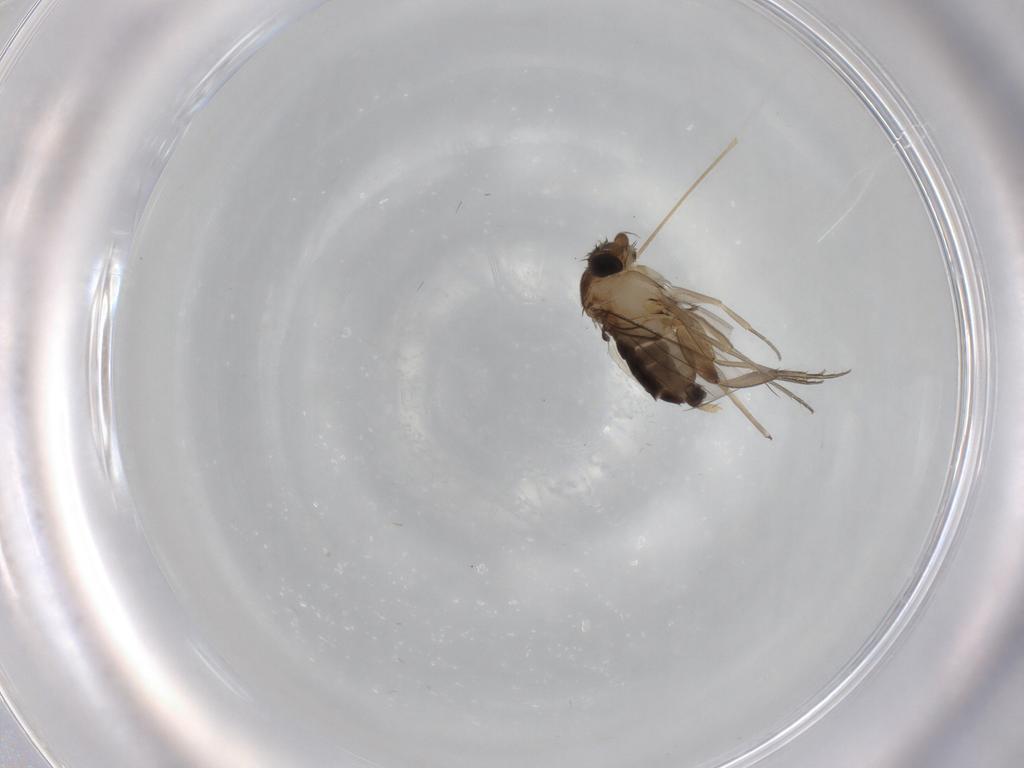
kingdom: Animalia
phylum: Arthropoda
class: Insecta
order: Diptera
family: Limoniidae
